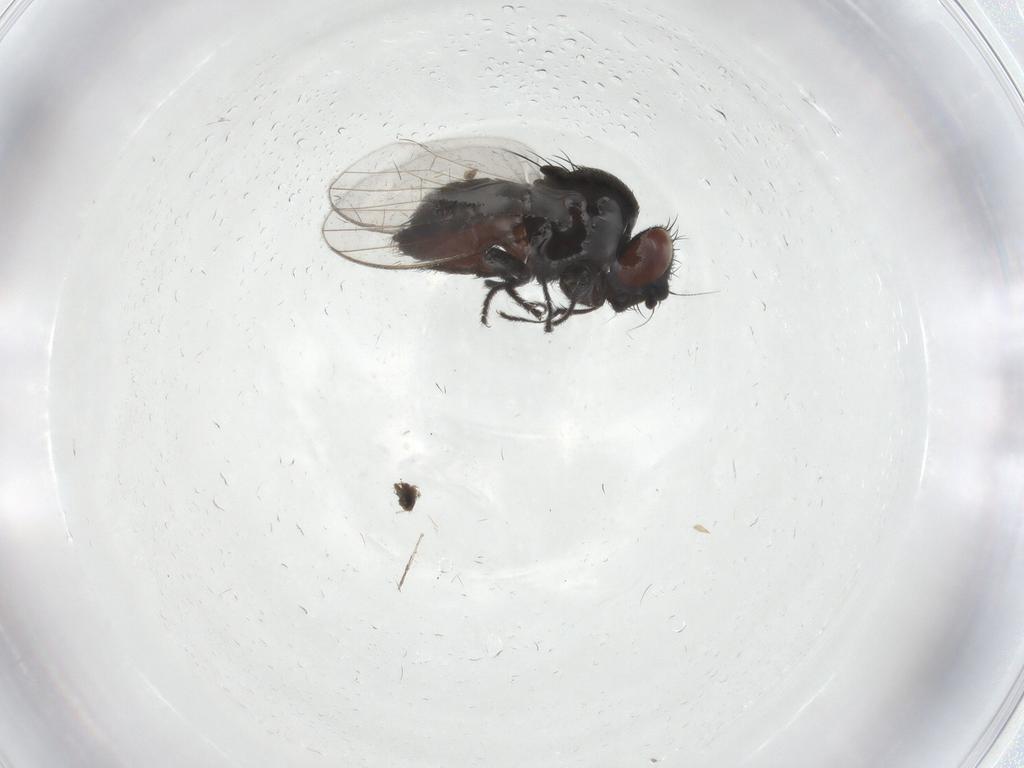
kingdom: Animalia
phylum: Arthropoda
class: Insecta
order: Diptera
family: Milichiidae
